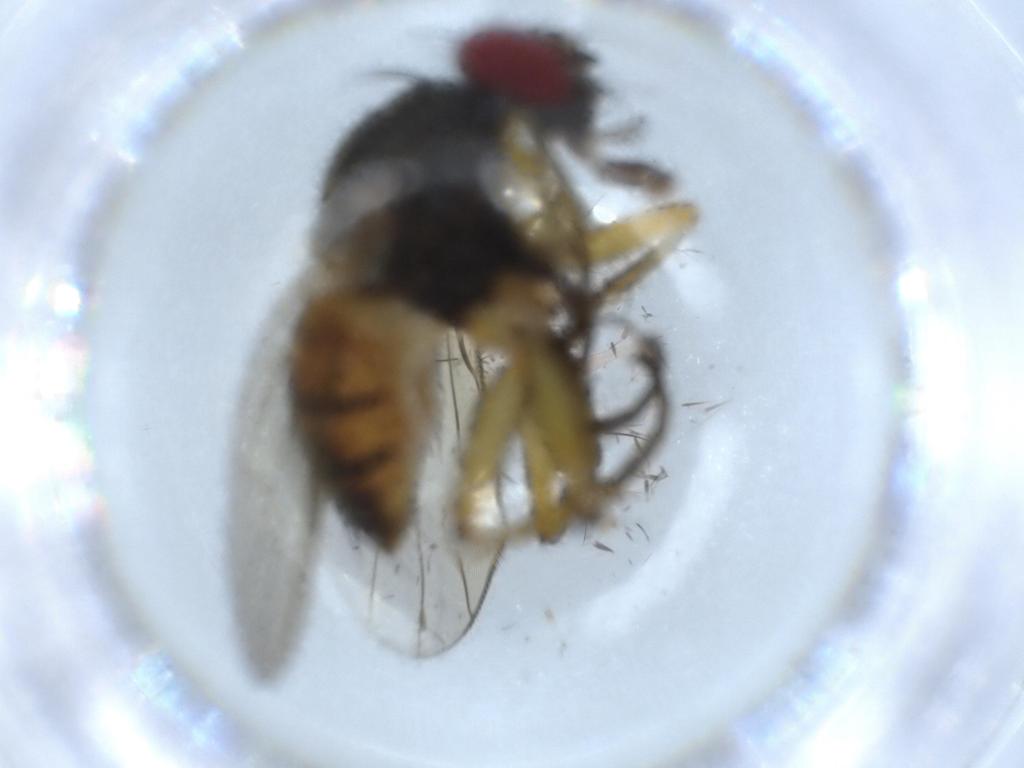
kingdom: Animalia
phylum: Arthropoda
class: Insecta
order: Diptera
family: Muscidae
